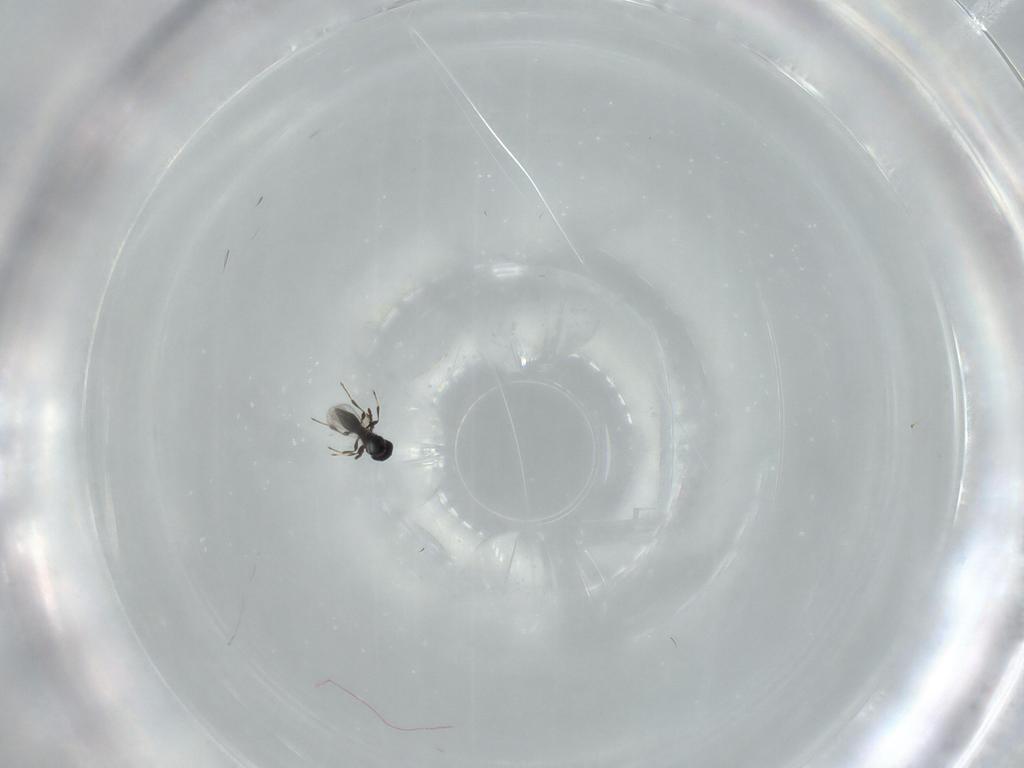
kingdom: Animalia
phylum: Arthropoda
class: Insecta
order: Hymenoptera
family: Platygastridae
